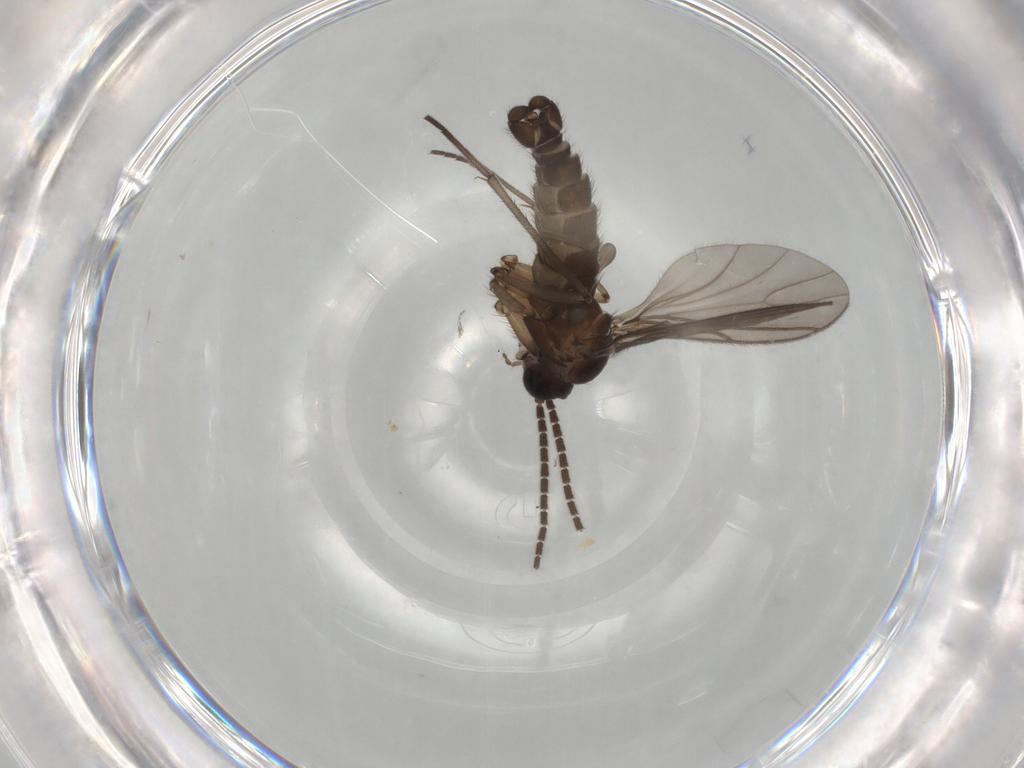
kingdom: Animalia
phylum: Arthropoda
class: Insecta
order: Diptera
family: Sciaridae
